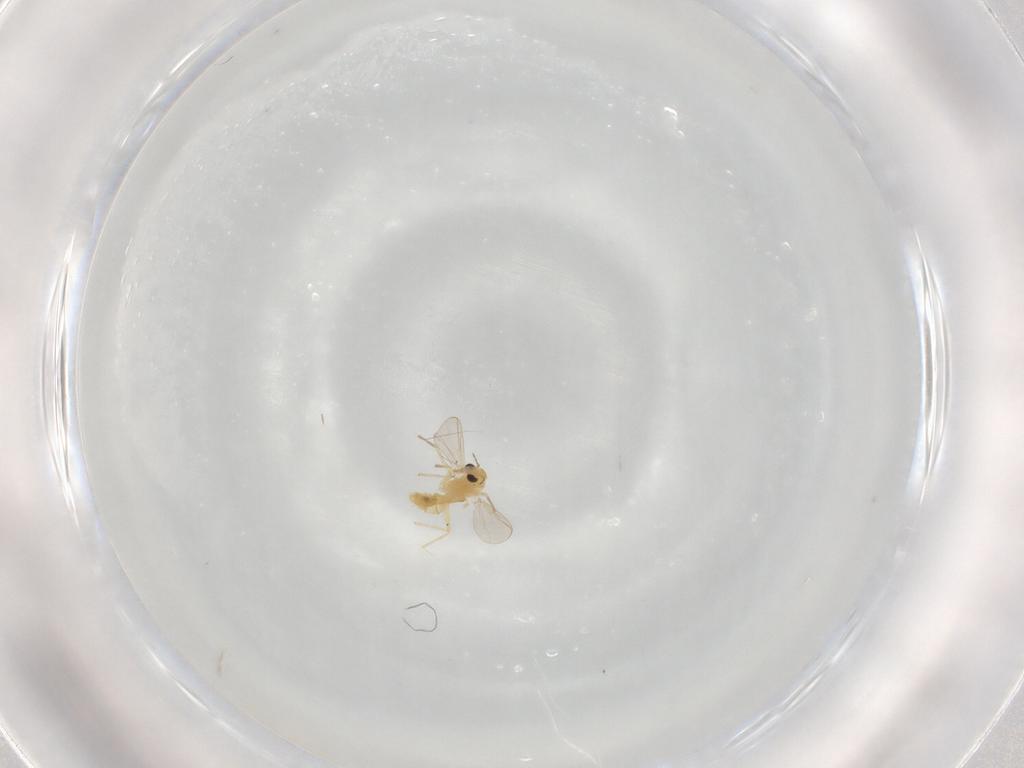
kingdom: Animalia
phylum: Arthropoda
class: Insecta
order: Diptera
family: Chironomidae
